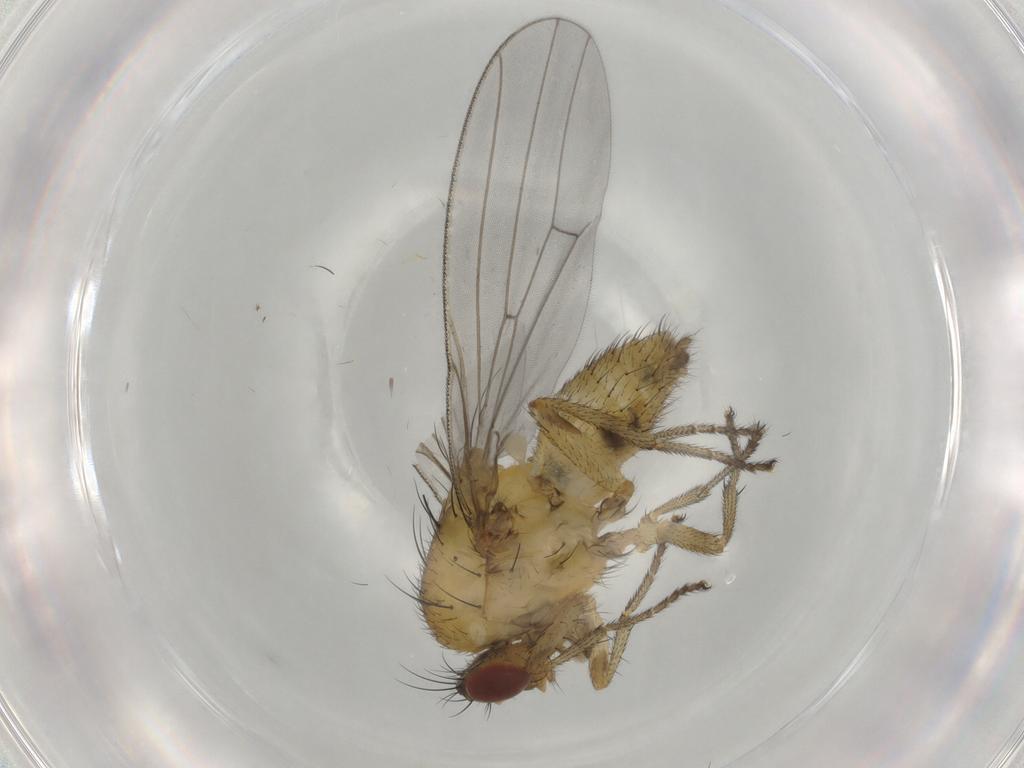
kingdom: Animalia
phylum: Arthropoda
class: Insecta
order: Diptera
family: Lauxaniidae
